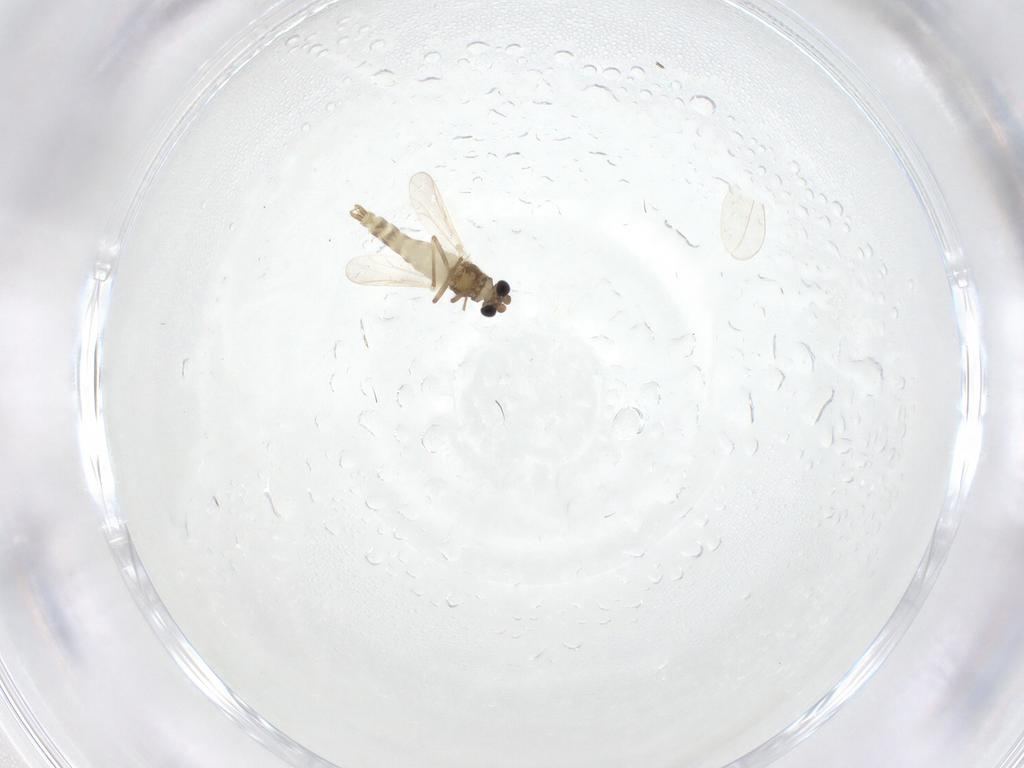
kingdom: Animalia
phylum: Arthropoda
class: Insecta
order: Diptera
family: Chironomidae
